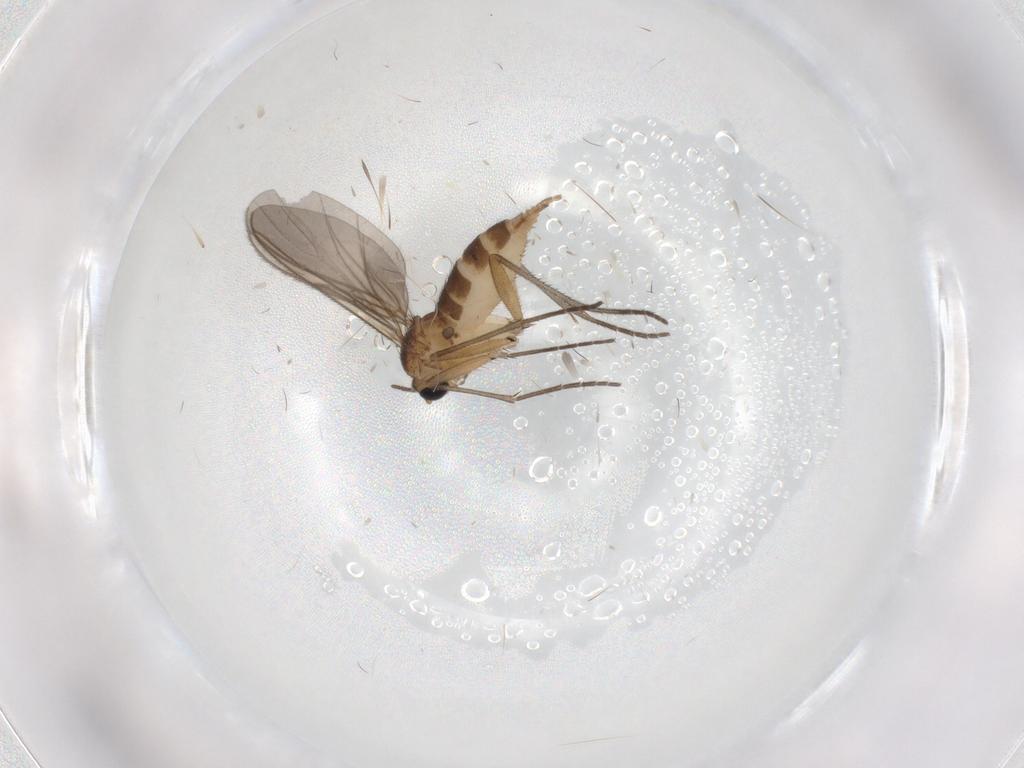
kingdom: Animalia
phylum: Arthropoda
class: Insecta
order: Diptera
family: Sciaridae
